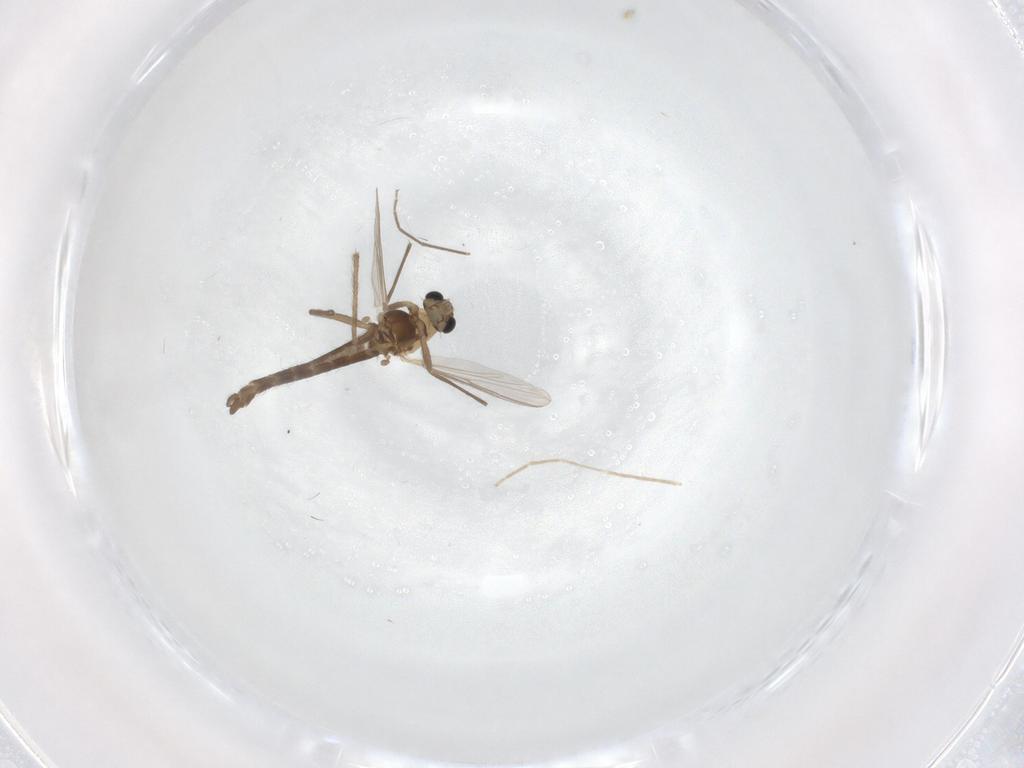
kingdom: Animalia
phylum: Arthropoda
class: Insecta
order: Diptera
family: Chironomidae
